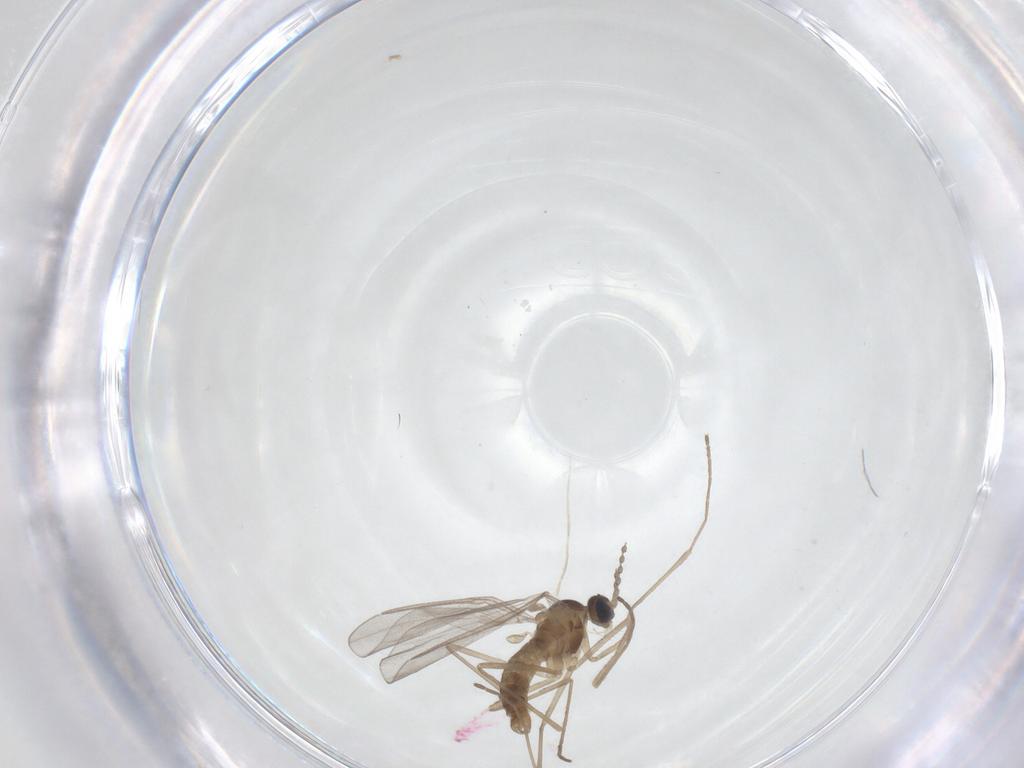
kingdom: Animalia
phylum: Arthropoda
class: Insecta
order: Diptera
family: Cecidomyiidae
